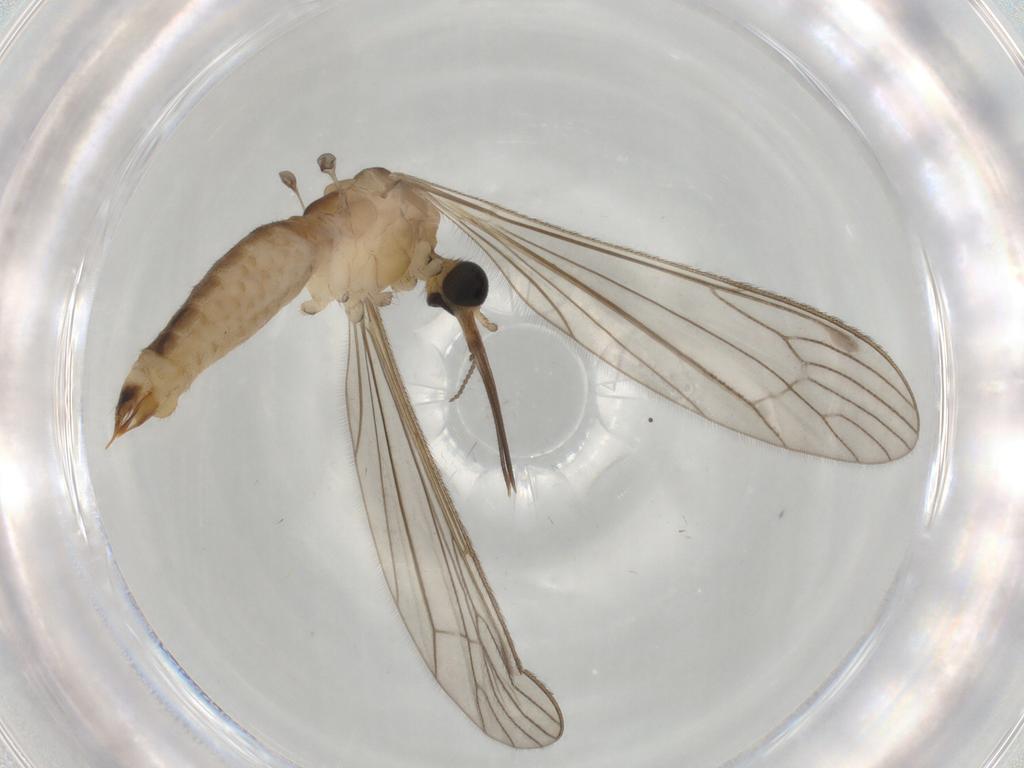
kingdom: Animalia
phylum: Arthropoda
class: Insecta
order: Diptera
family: Ulidiidae
